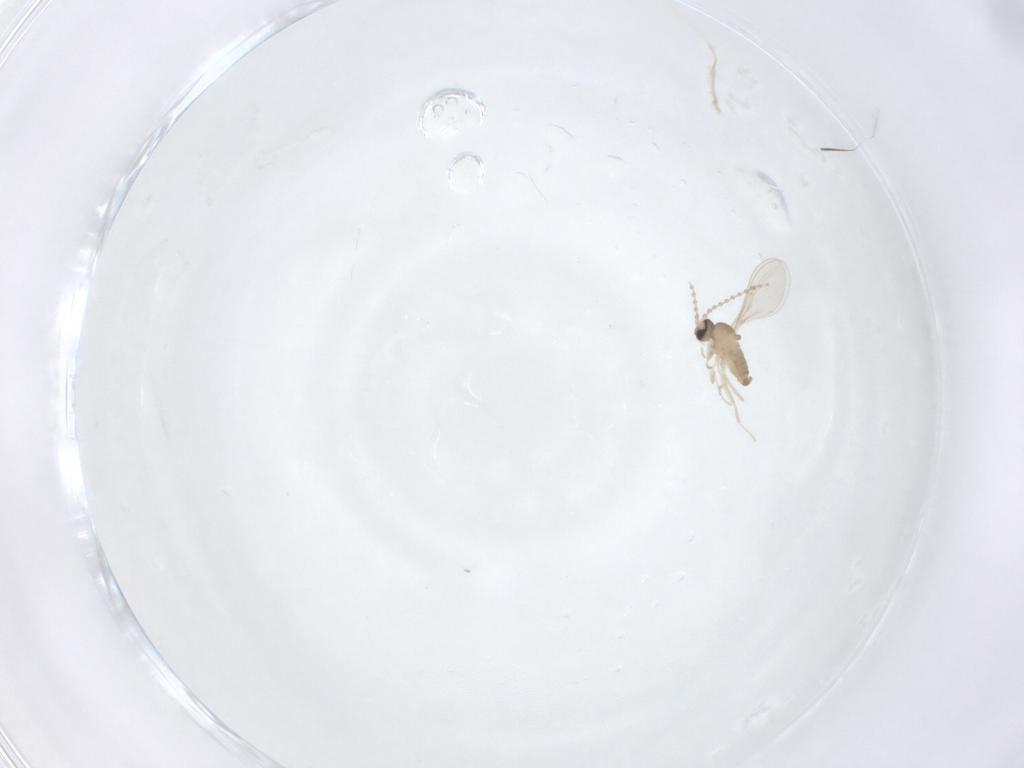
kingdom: Animalia
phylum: Arthropoda
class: Insecta
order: Diptera
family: Cecidomyiidae
